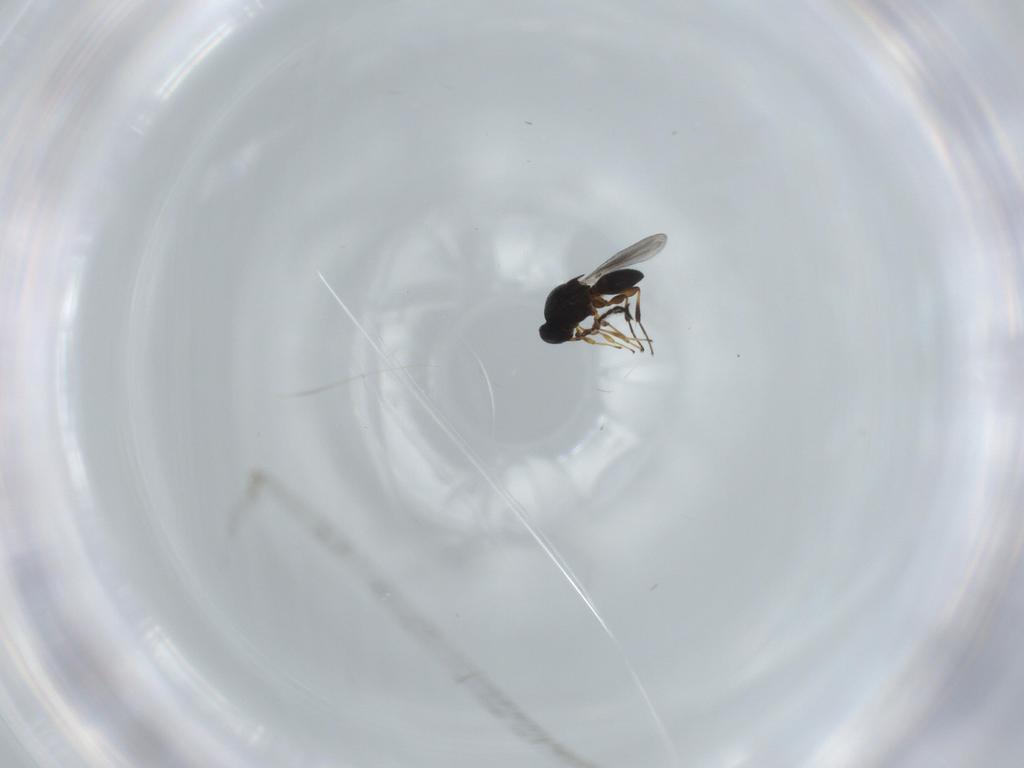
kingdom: Animalia
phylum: Arthropoda
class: Insecta
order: Hymenoptera
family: Platygastridae
